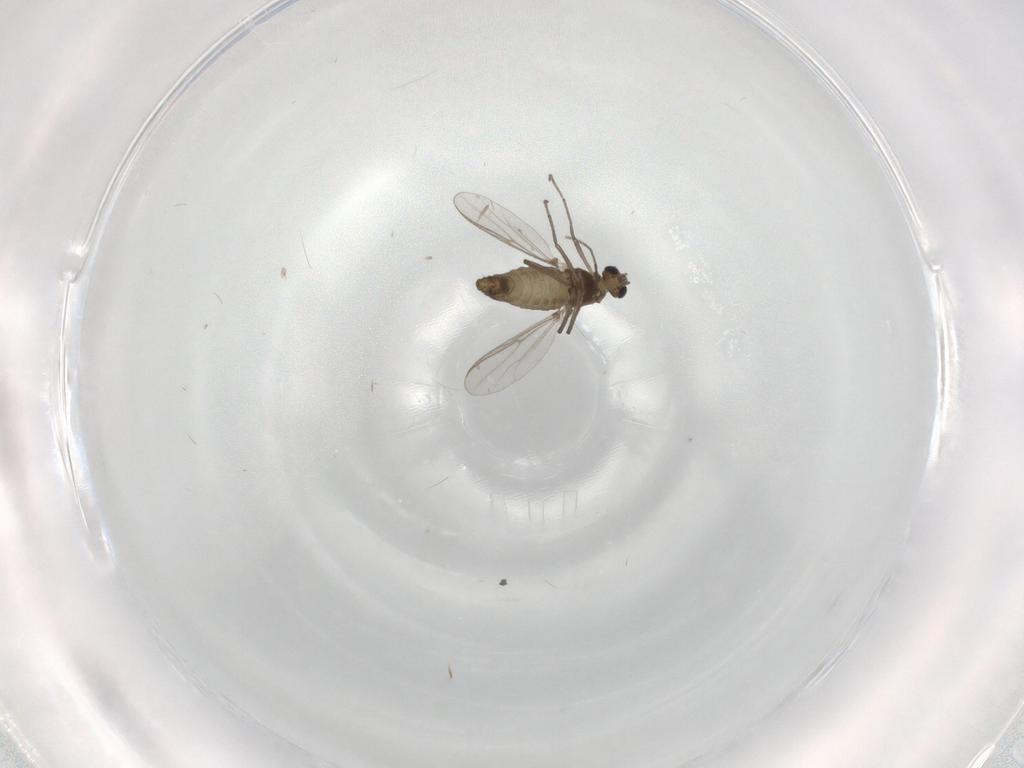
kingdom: Animalia
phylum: Arthropoda
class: Insecta
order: Diptera
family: Chironomidae
